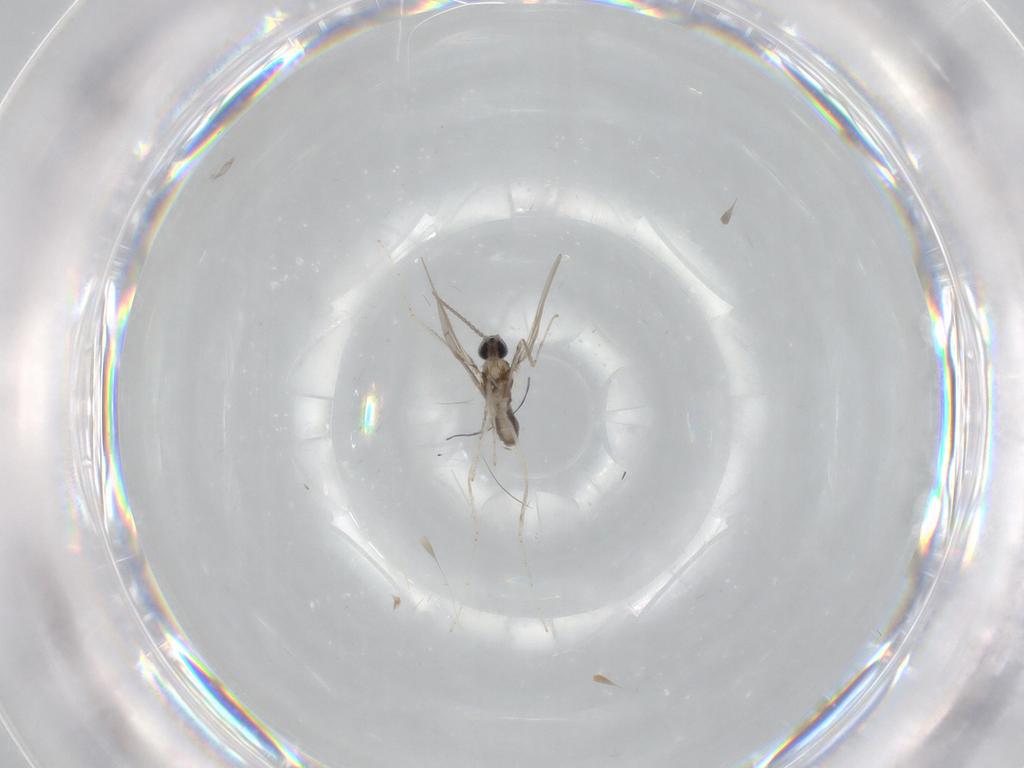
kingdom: Animalia
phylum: Arthropoda
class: Insecta
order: Diptera
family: Cecidomyiidae
